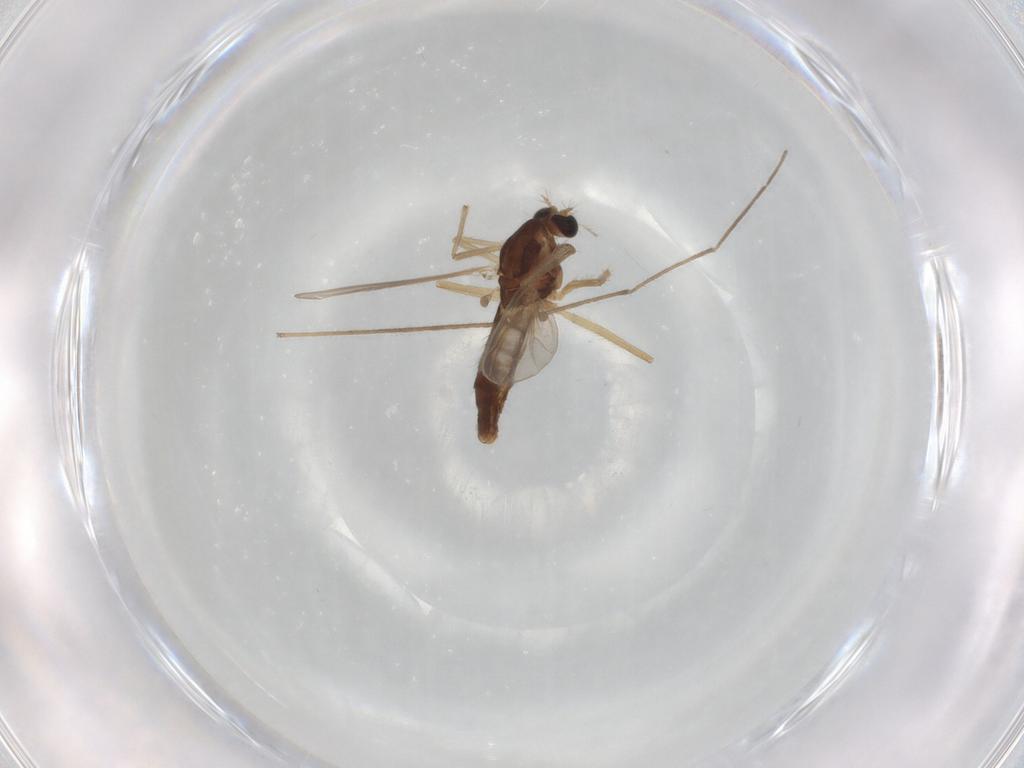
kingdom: Animalia
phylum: Arthropoda
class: Insecta
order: Diptera
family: Chironomidae
